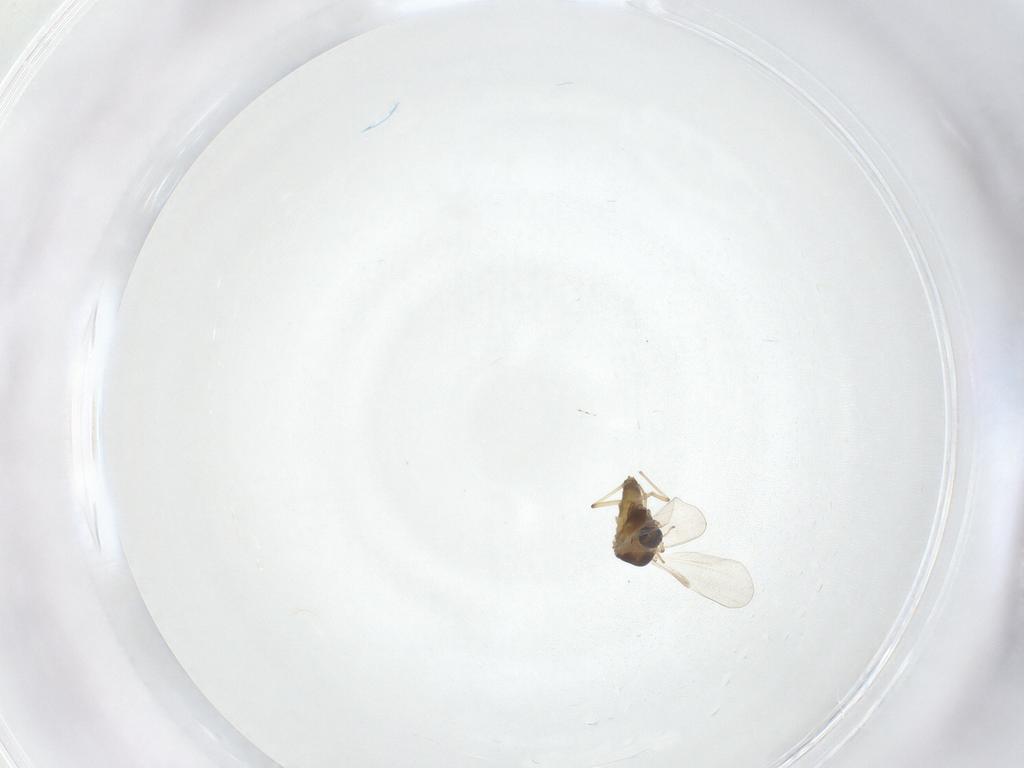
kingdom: Animalia
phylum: Arthropoda
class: Insecta
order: Diptera
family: Chironomidae
